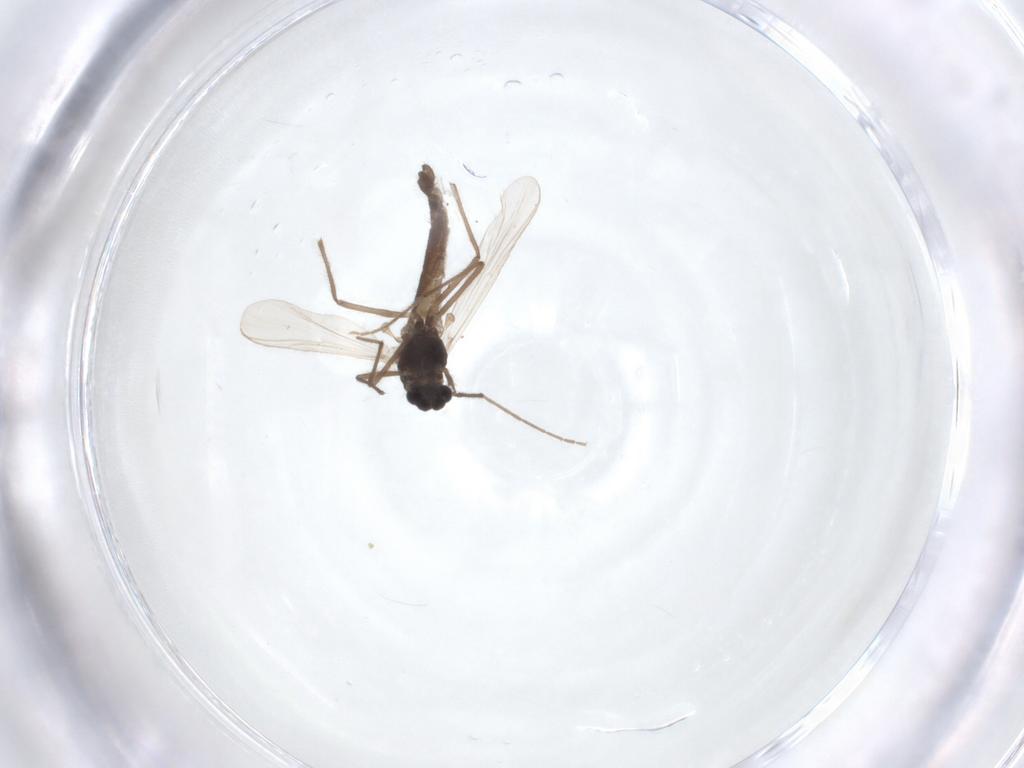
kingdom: Animalia
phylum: Arthropoda
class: Insecta
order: Diptera
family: Chironomidae
